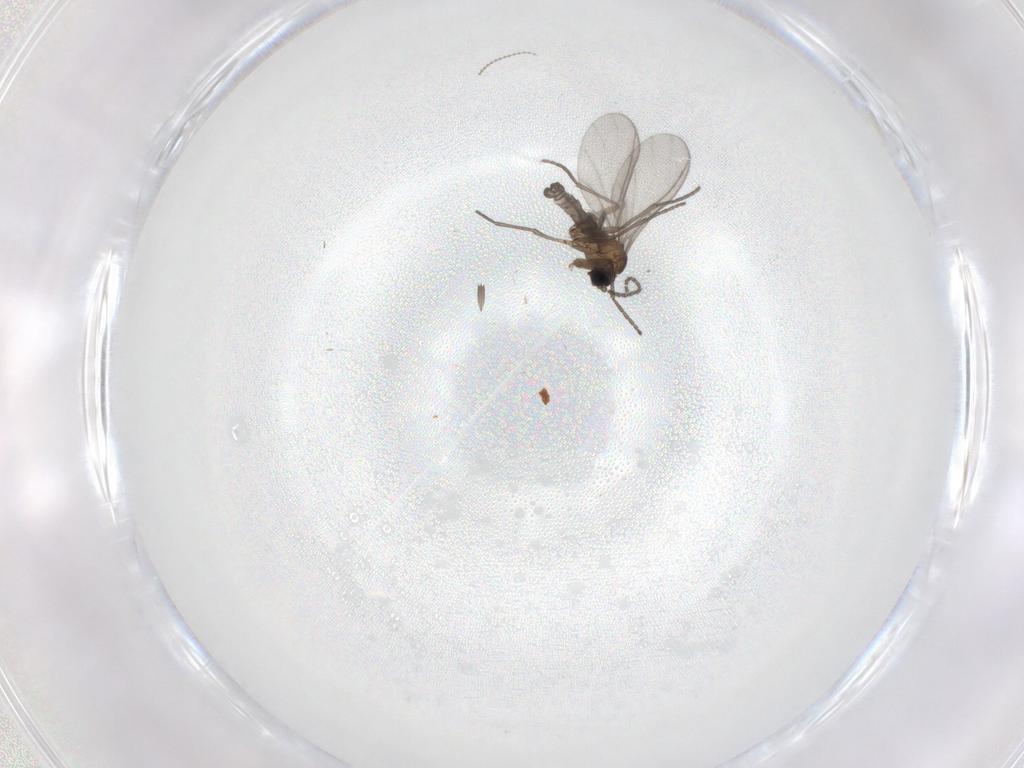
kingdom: Animalia
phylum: Arthropoda
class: Insecta
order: Diptera
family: Sciaridae
